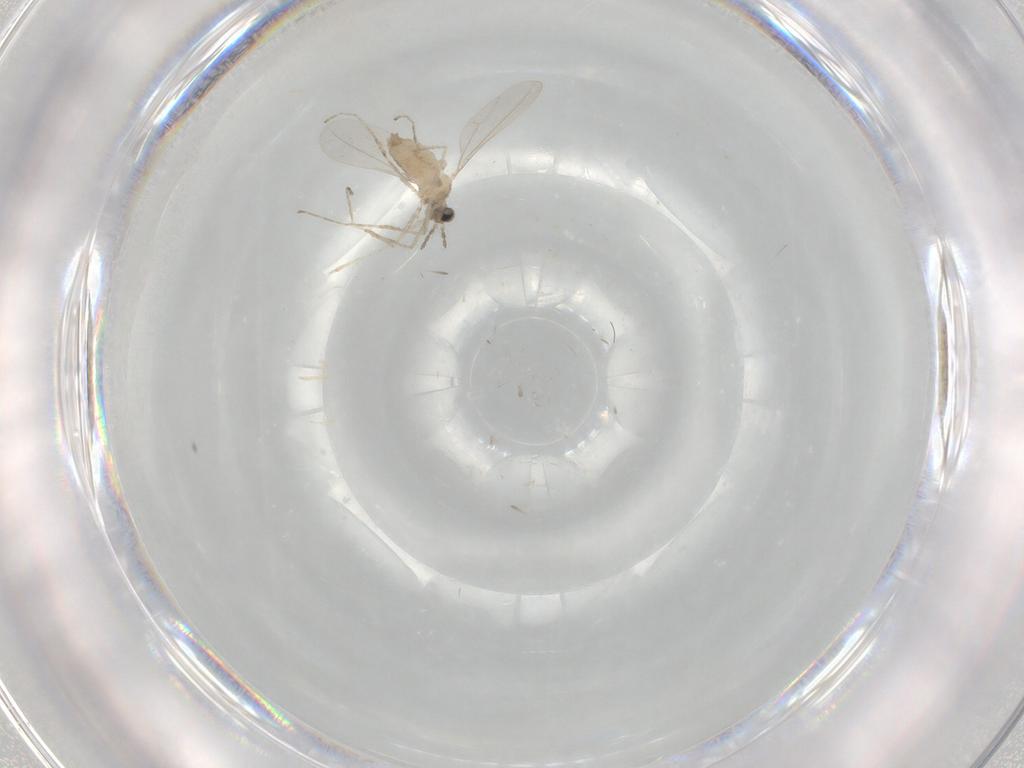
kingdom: Animalia
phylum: Arthropoda
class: Insecta
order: Diptera
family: Cecidomyiidae
